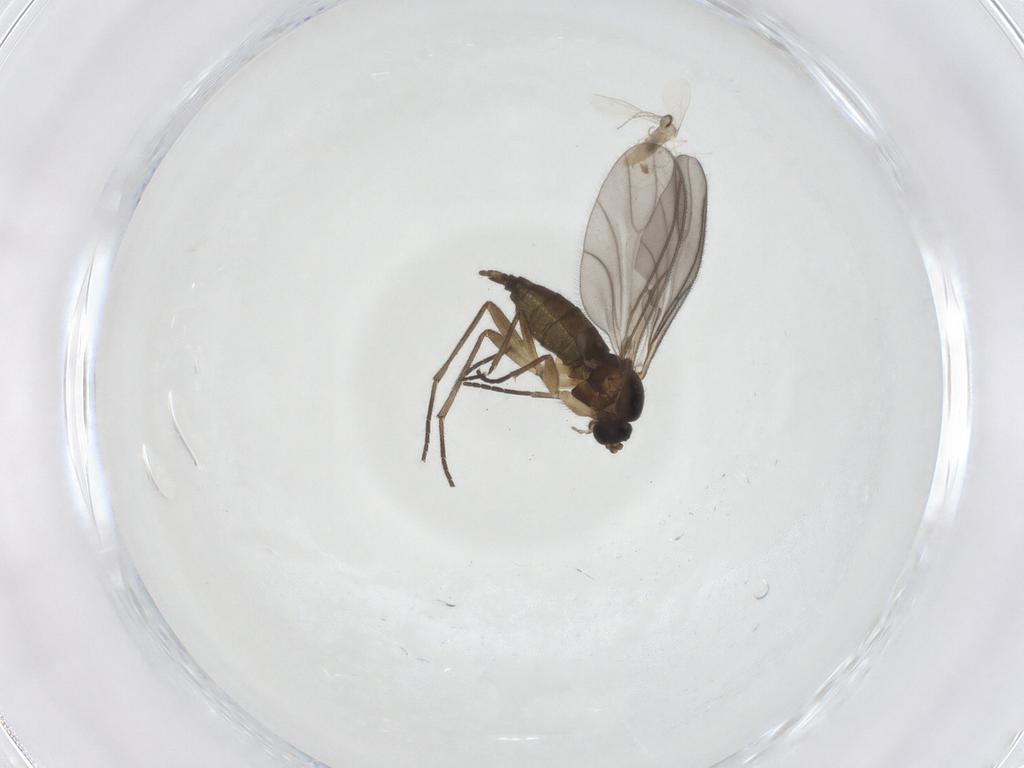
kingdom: Animalia
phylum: Arthropoda
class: Insecta
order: Diptera
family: Sciaridae
